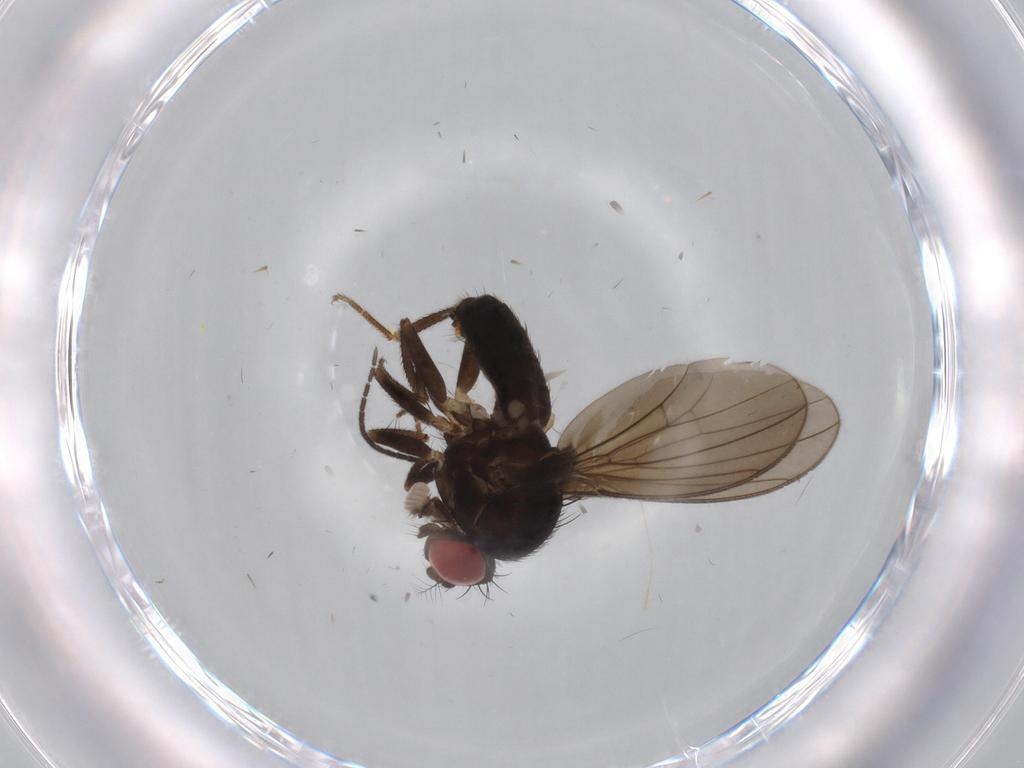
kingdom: Animalia
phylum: Arthropoda
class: Insecta
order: Diptera
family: Drosophilidae
